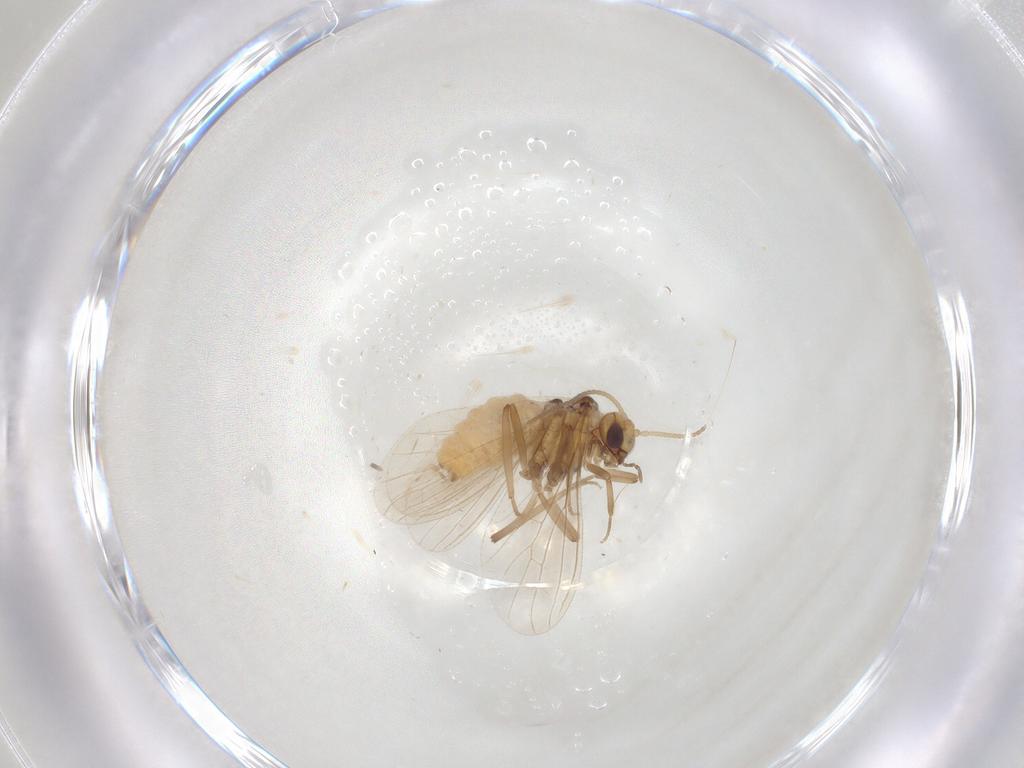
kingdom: Animalia
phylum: Arthropoda
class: Insecta
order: Neuroptera
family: Coniopterygidae
